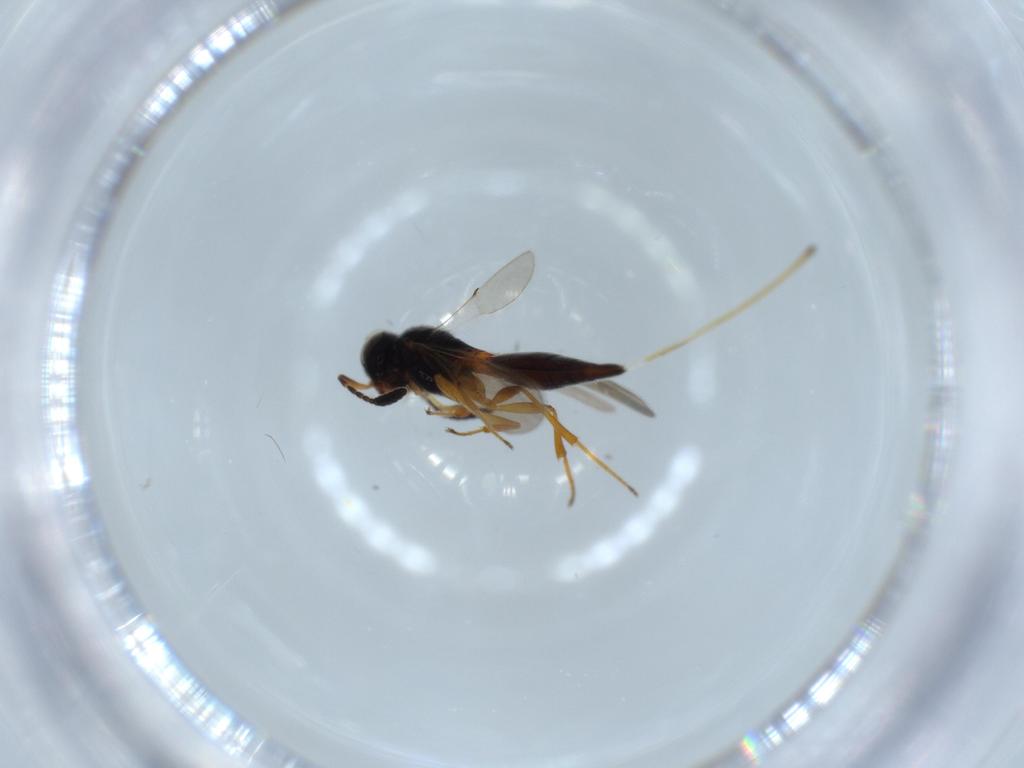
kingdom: Animalia
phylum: Arthropoda
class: Insecta
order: Hymenoptera
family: Scelionidae
